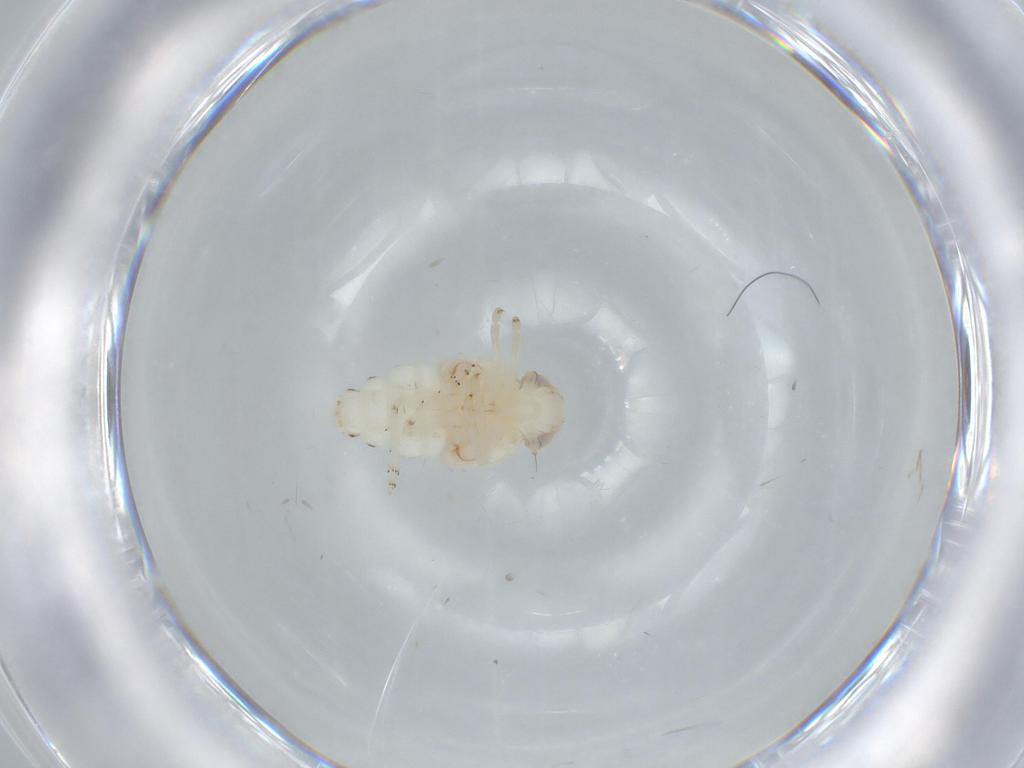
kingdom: Animalia
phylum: Arthropoda
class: Insecta
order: Hemiptera
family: Nogodinidae
